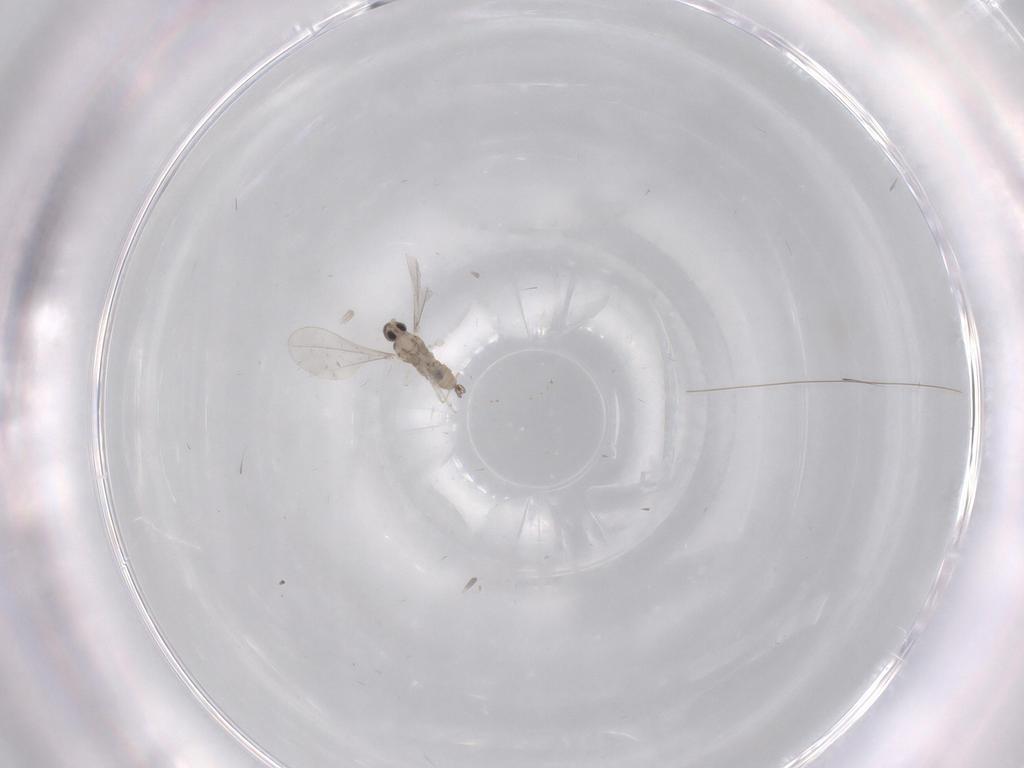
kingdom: Animalia
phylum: Arthropoda
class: Insecta
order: Diptera
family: Cecidomyiidae
